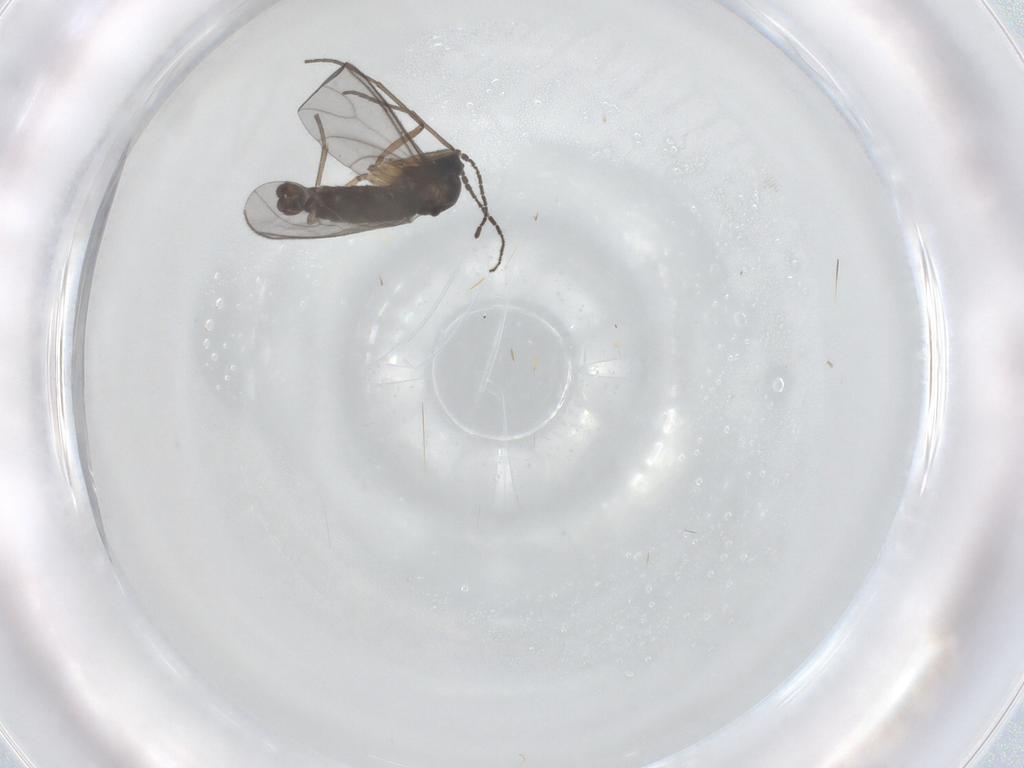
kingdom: Animalia
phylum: Arthropoda
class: Insecta
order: Diptera
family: Sciaridae
